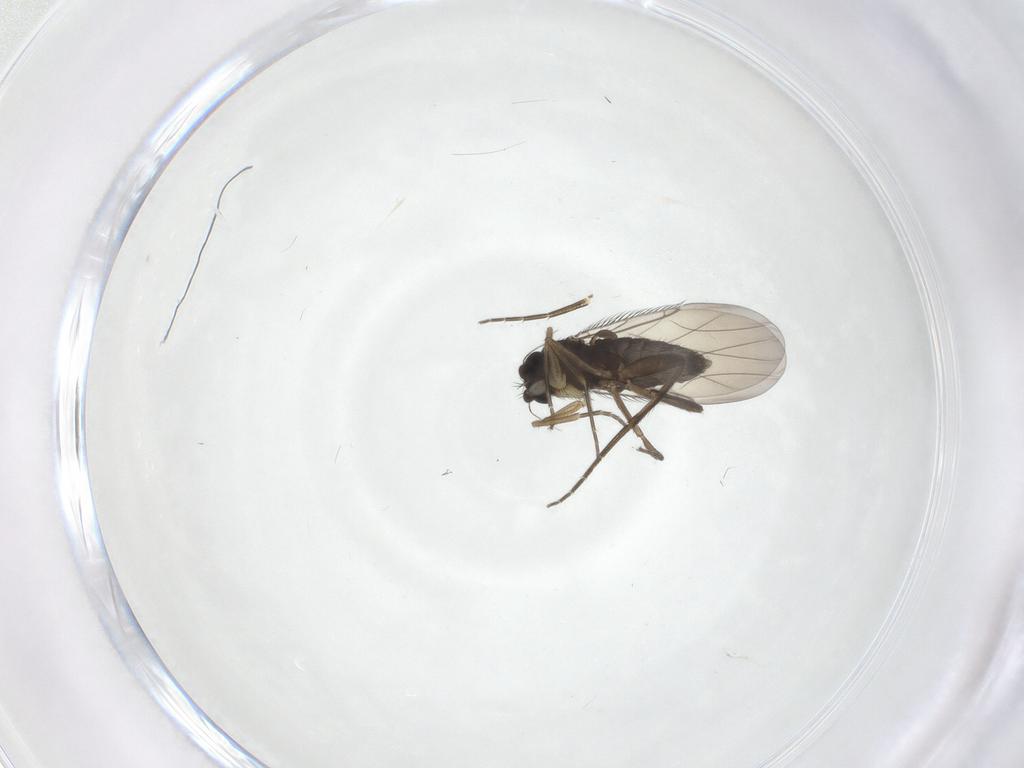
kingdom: Animalia
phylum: Arthropoda
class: Insecta
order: Diptera
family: Phoridae
